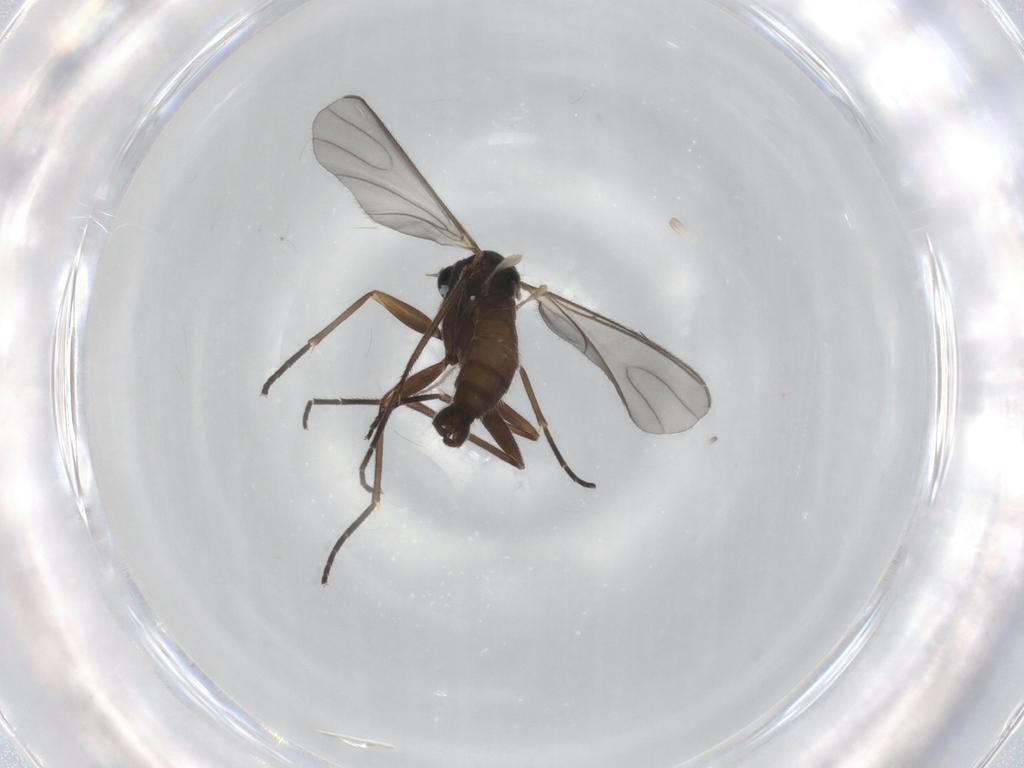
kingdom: Animalia
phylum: Arthropoda
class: Insecta
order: Diptera
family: Sciaridae
